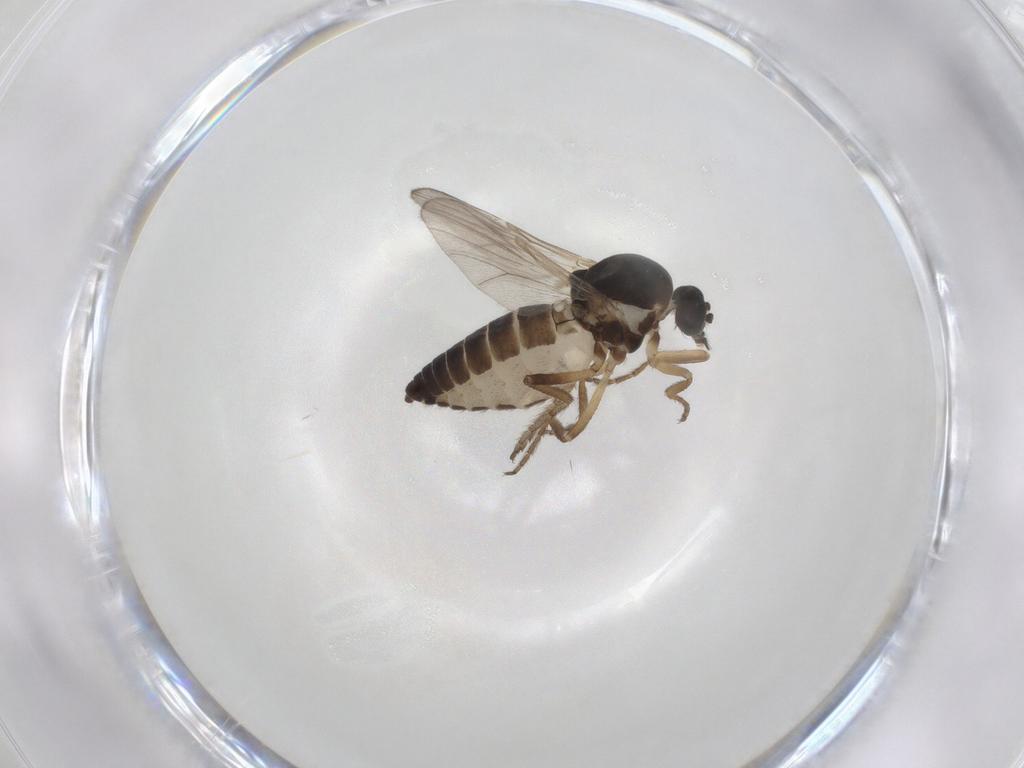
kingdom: Animalia
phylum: Arthropoda
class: Insecta
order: Diptera
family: Ceratopogonidae
